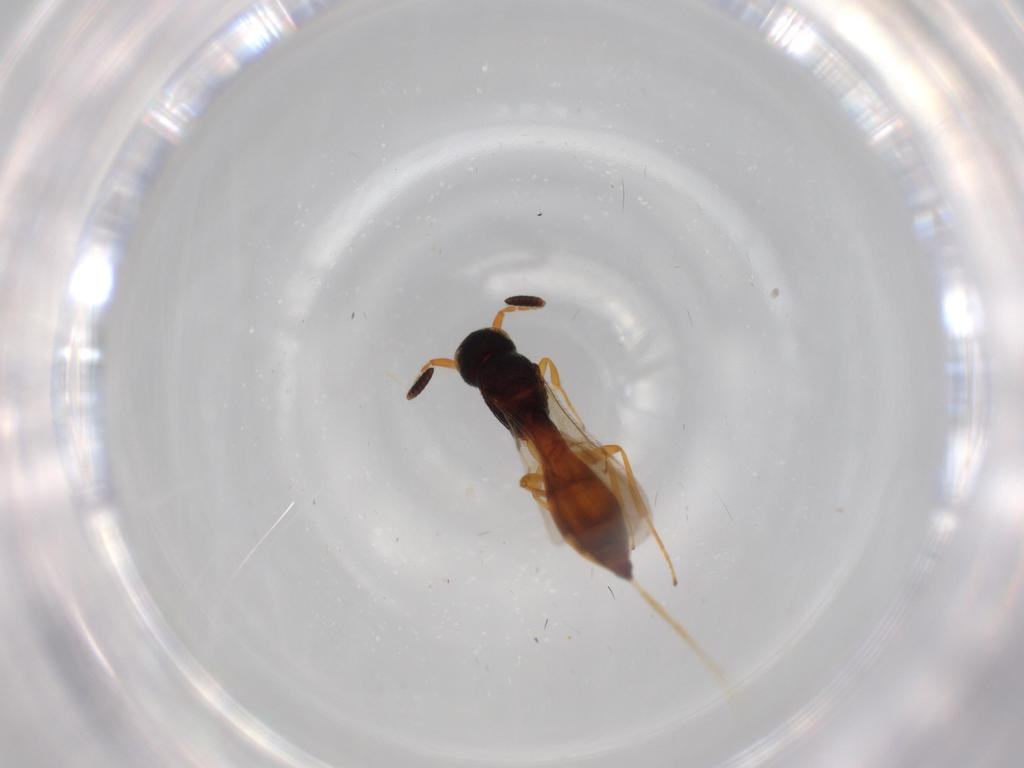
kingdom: Animalia
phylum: Arthropoda
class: Insecta
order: Hymenoptera
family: Scelionidae
